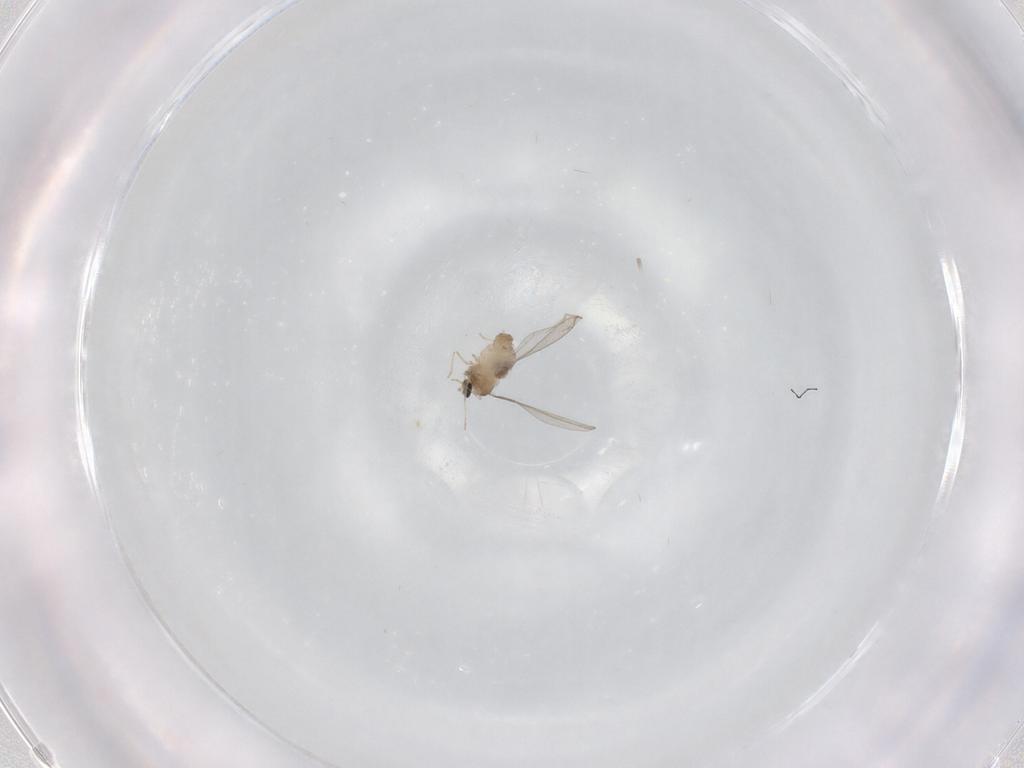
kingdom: Animalia
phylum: Arthropoda
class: Insecta
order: Diptera
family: Cecidomyiidae
